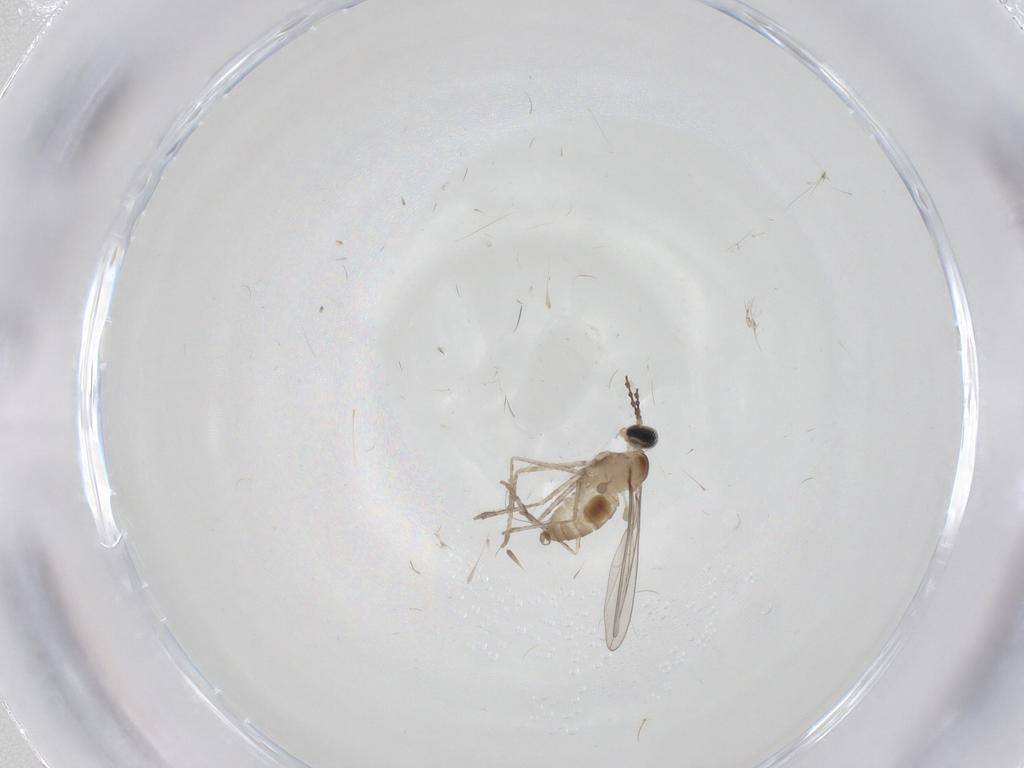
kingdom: Animalia
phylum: Arthropoda
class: Insecta
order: Diptera
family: Cecidomyiidae
